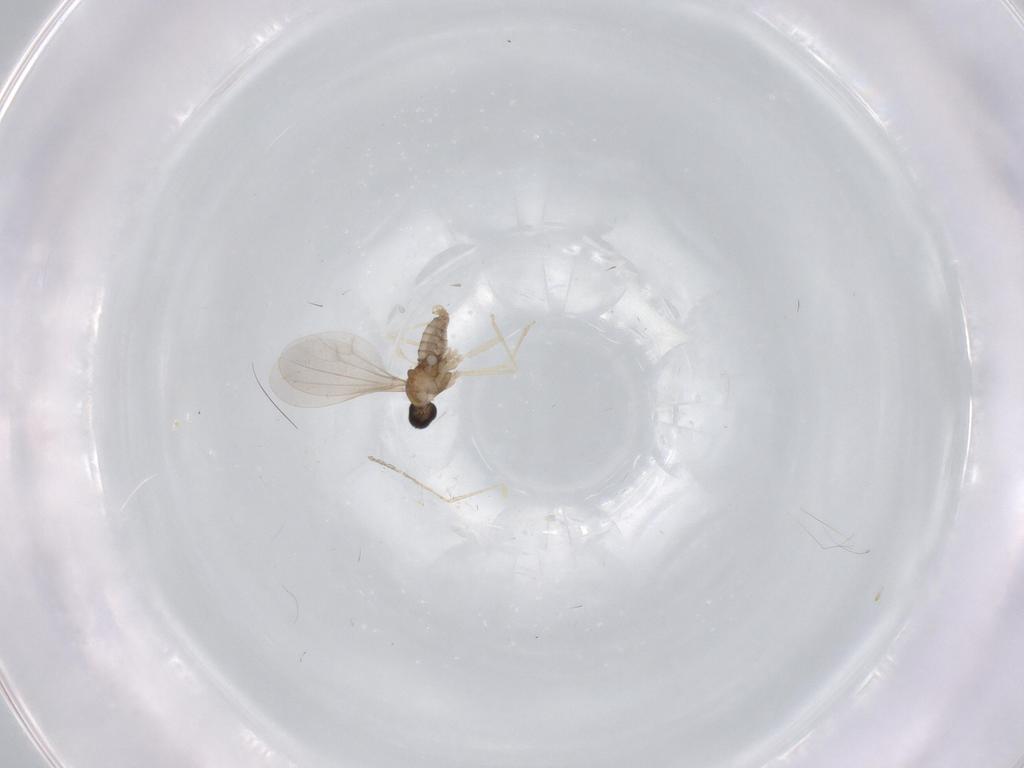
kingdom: Animalia
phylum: Arthropoda
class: Insecta
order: Diptera
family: Cecidomyiidae
